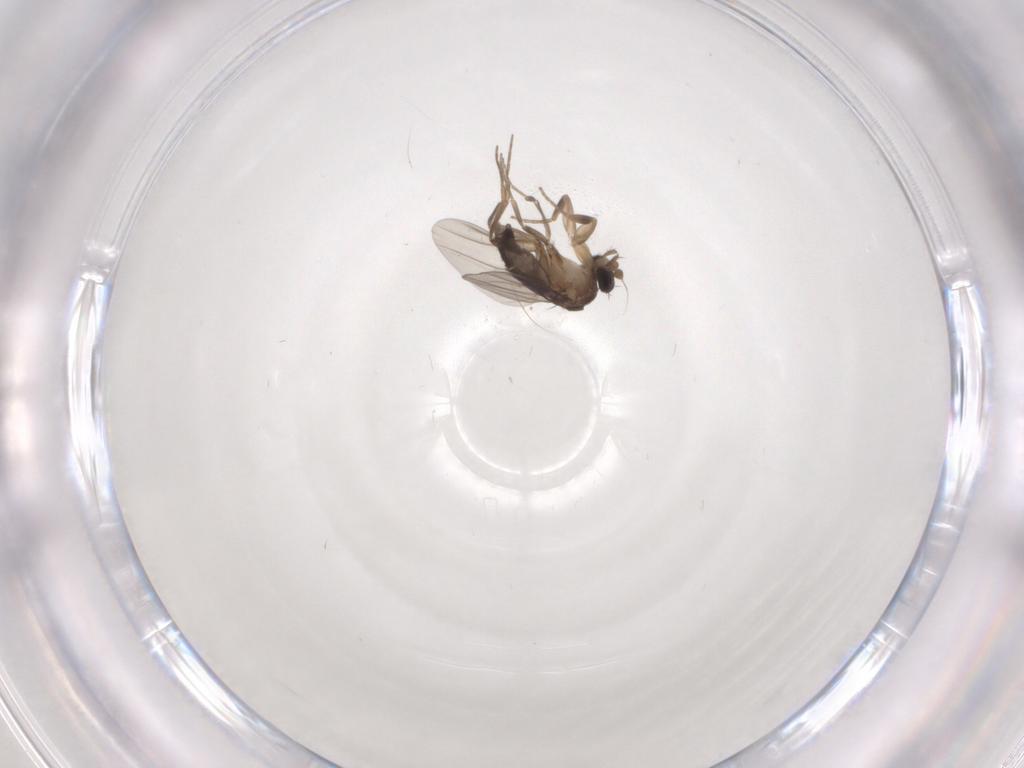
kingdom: Animalia
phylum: Arthropoda
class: Insecta
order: Diptera
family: Phoridae
